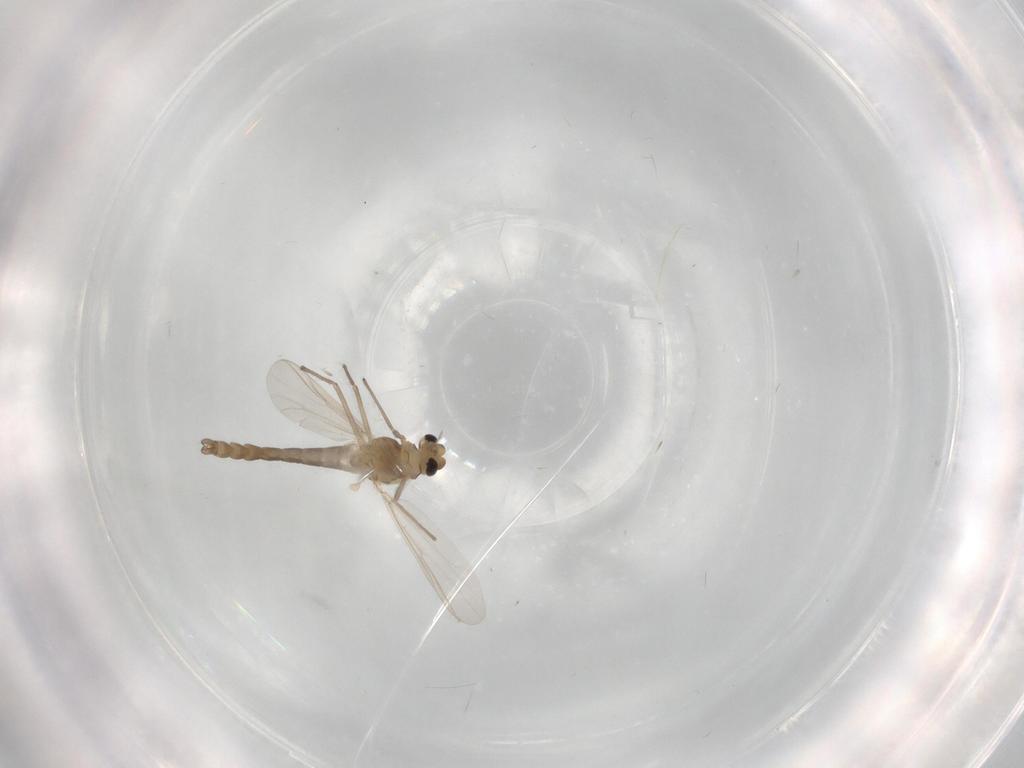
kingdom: Animalia
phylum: Arthropoda
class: Insecta
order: Diptera
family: Chironomidae
